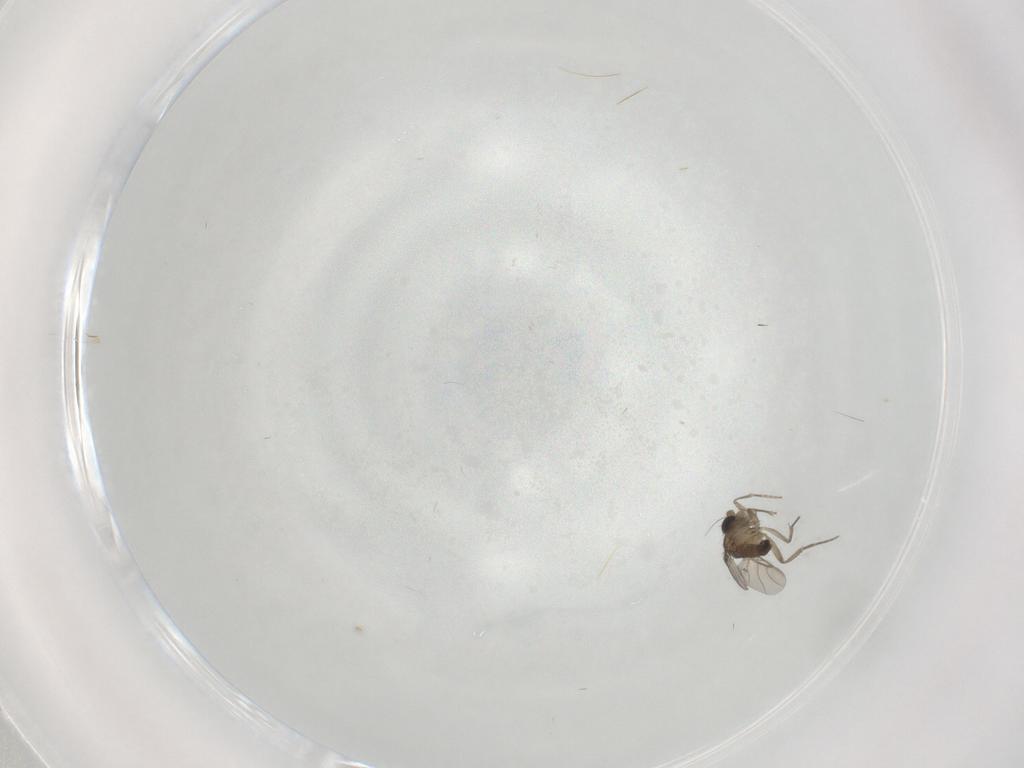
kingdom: Animalia
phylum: Arthropoda
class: Insecta
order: Diptera
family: Phoridae
